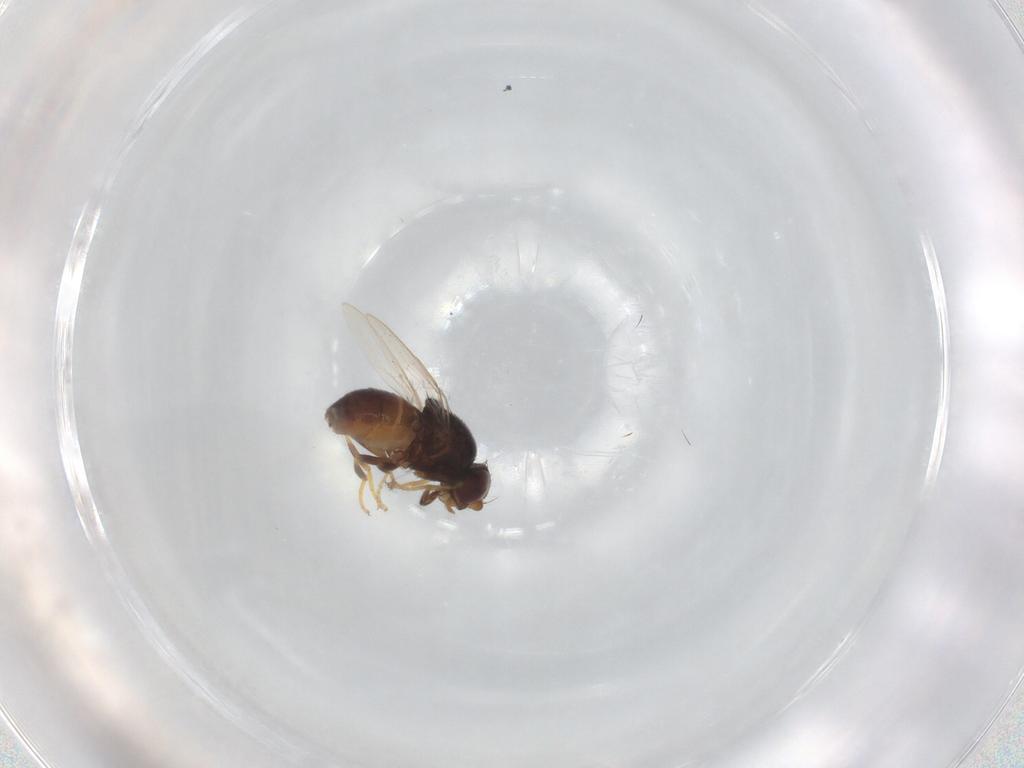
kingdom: Animalia
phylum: Arthropoda
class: Insecta
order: Diptera
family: Chloropidae
